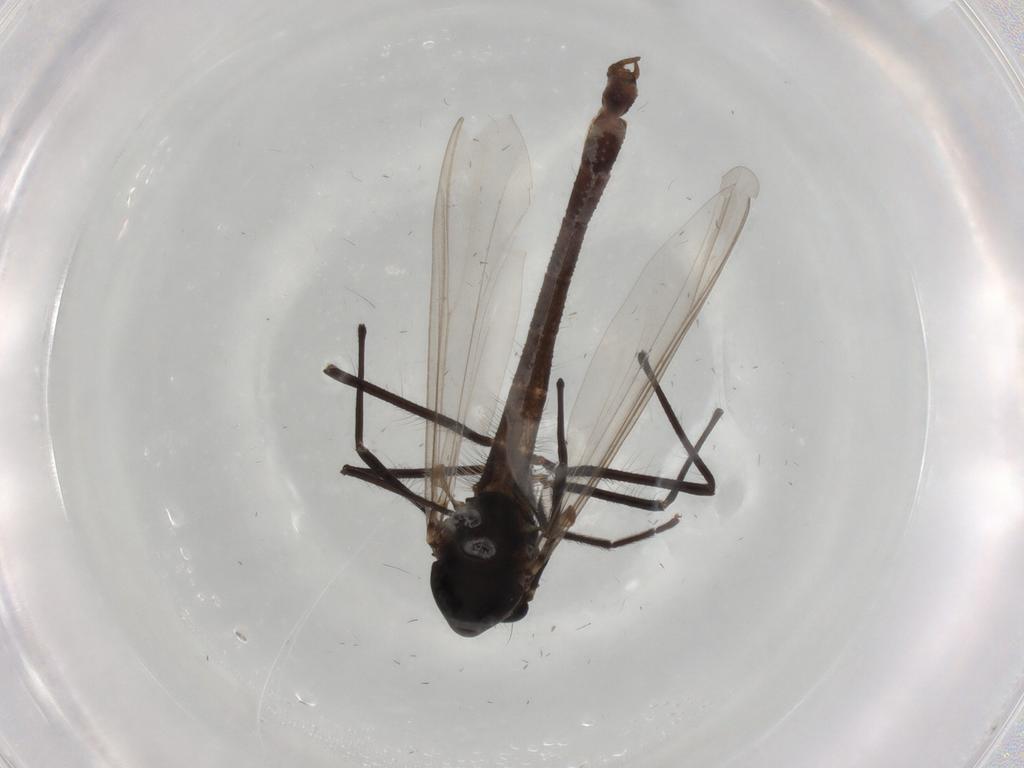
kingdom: Animalia
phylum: Arthropoda
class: Insecta
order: Diptera
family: Chironomidae
